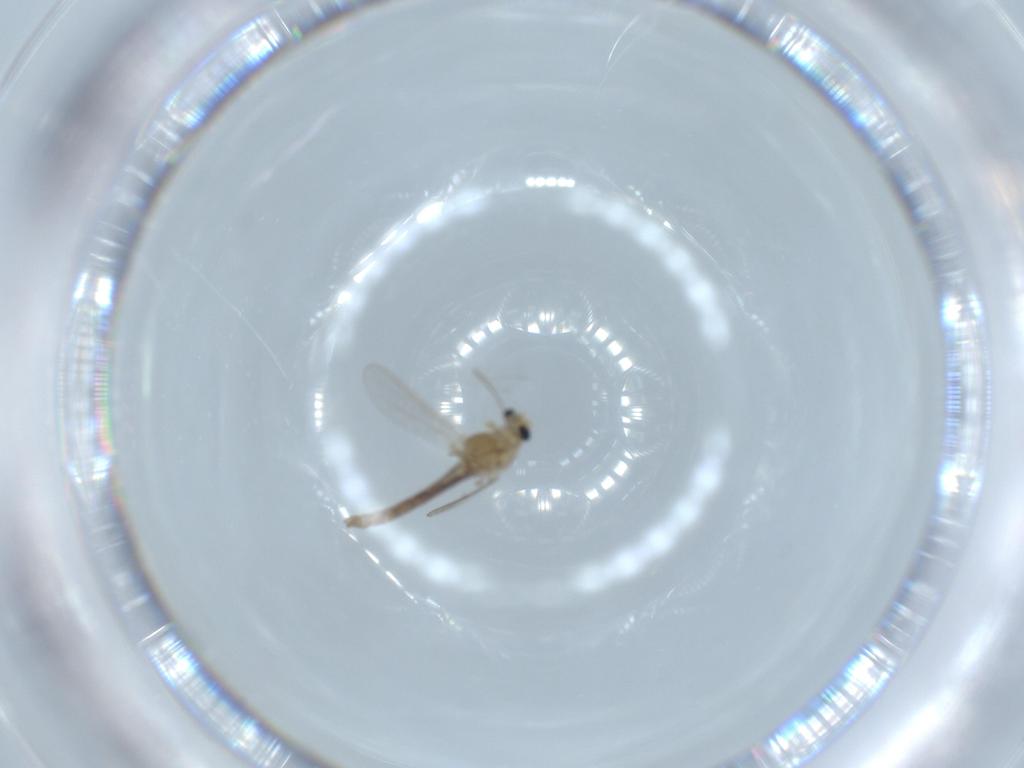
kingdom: Animalia
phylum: Arthropoda
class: Insecta
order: Diptera
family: Chironomidae
